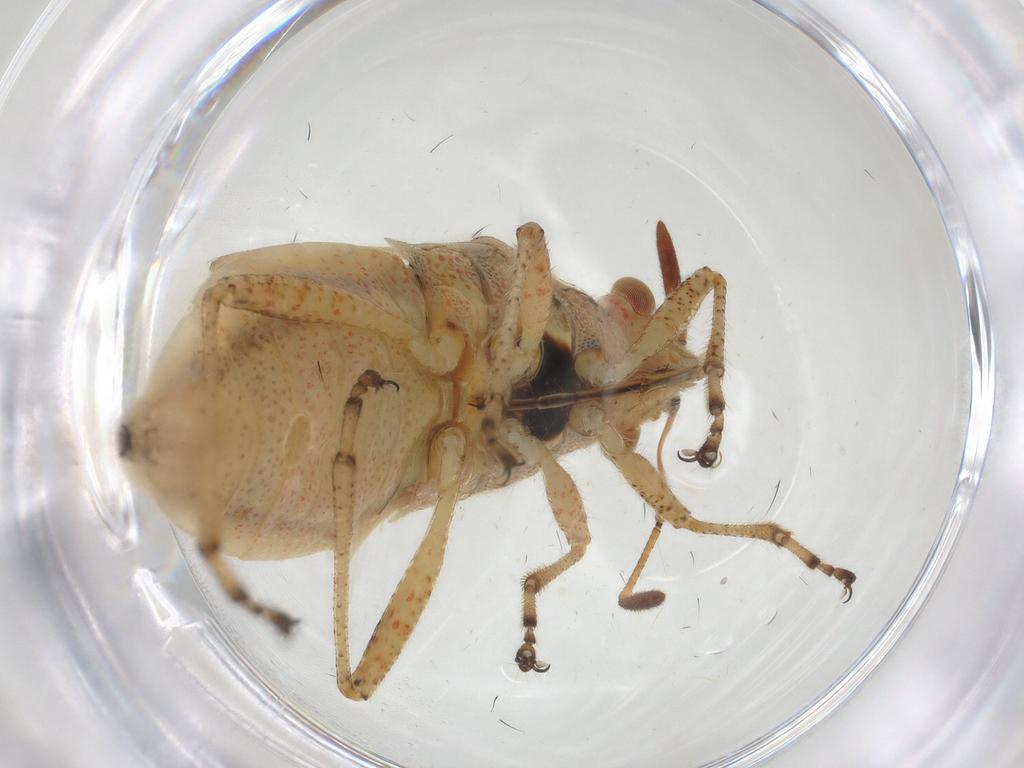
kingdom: Animalia
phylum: Arthropoda
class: Insecta
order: Hemiptera
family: Rhopalidae
